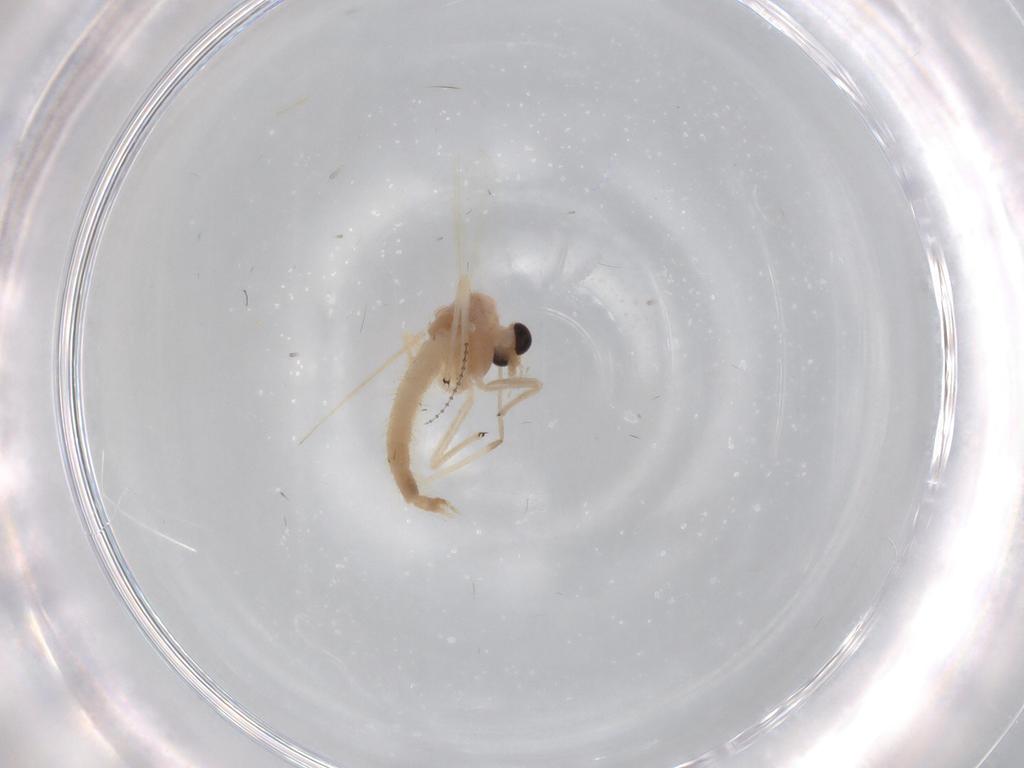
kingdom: Animalia
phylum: Arthropoda
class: Insecta
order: Diptera
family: Chironomidae
